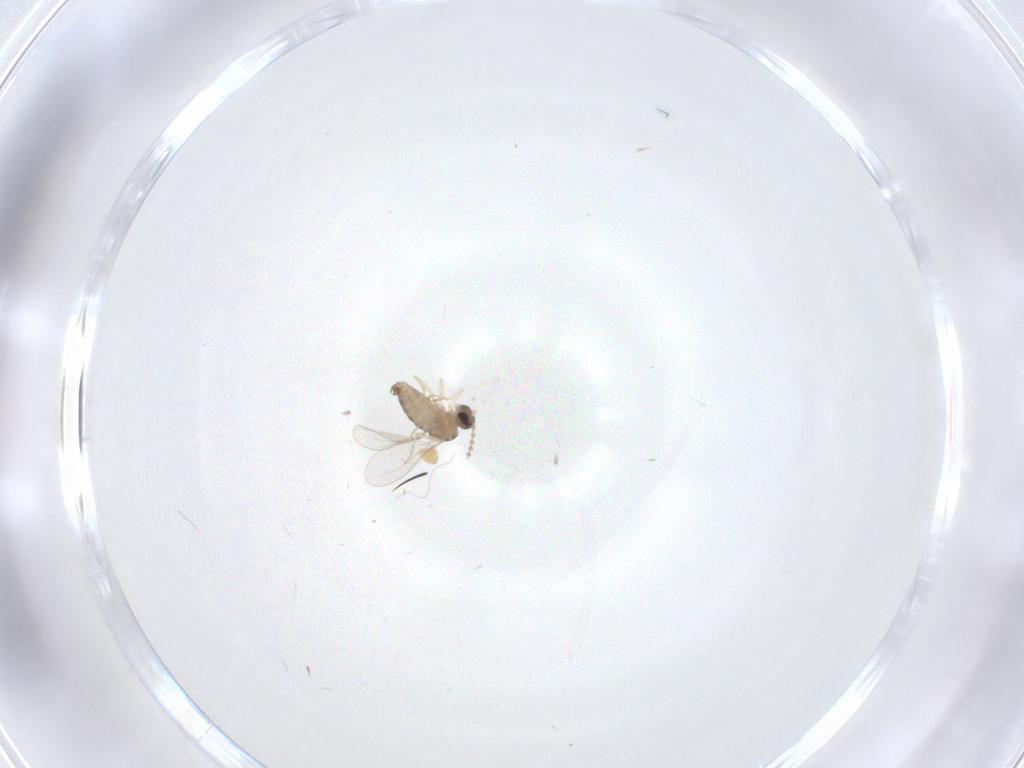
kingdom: Animalia
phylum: Arthropoda
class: Insecta
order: Diptera
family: Cecidomyiidae
